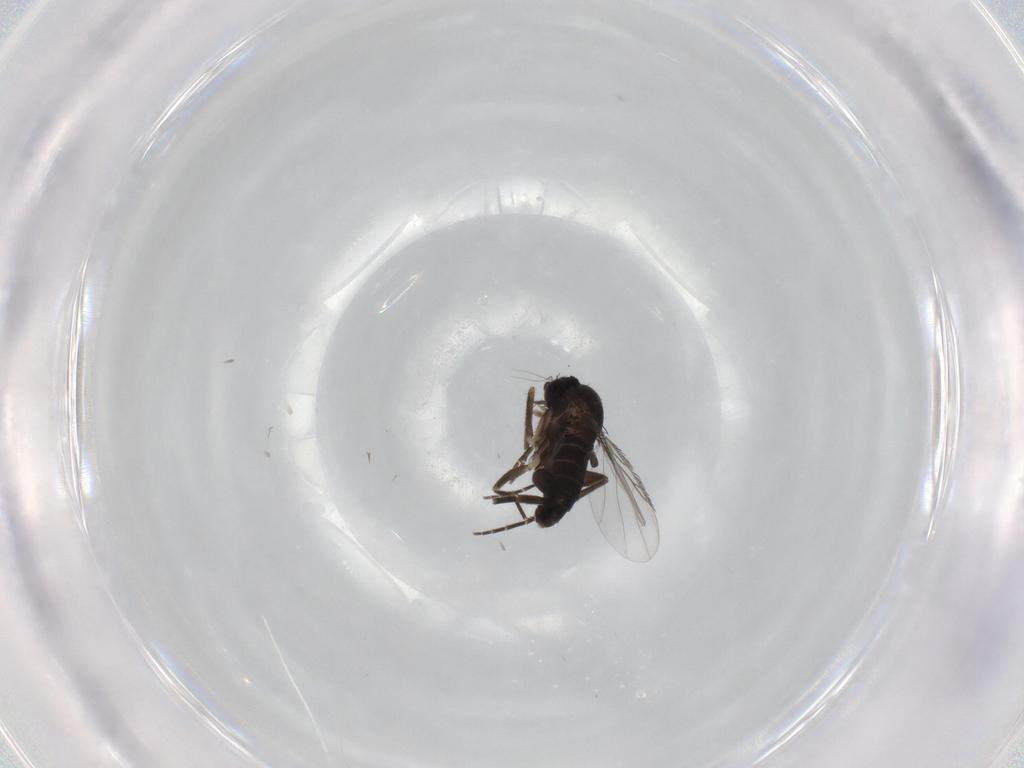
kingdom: Animalia
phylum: Arthropoda
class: Insecta
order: Diptera
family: Phoridae
